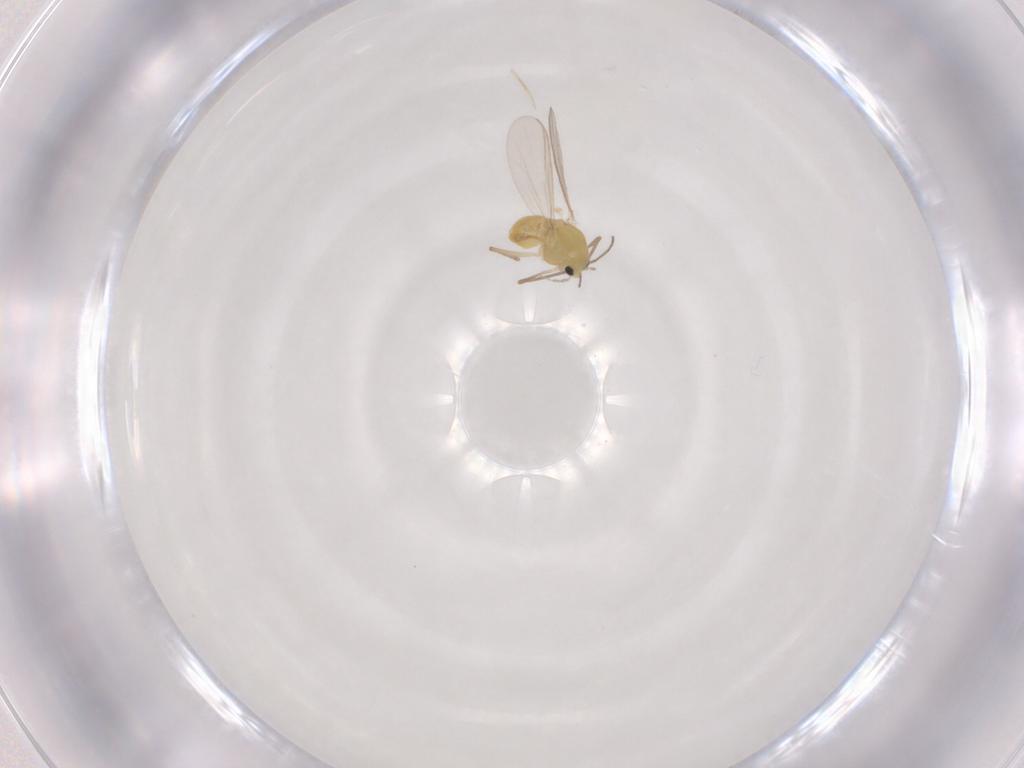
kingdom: Animalia
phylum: Arthropoda
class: Insecta
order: Diptera
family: Chironomidae
